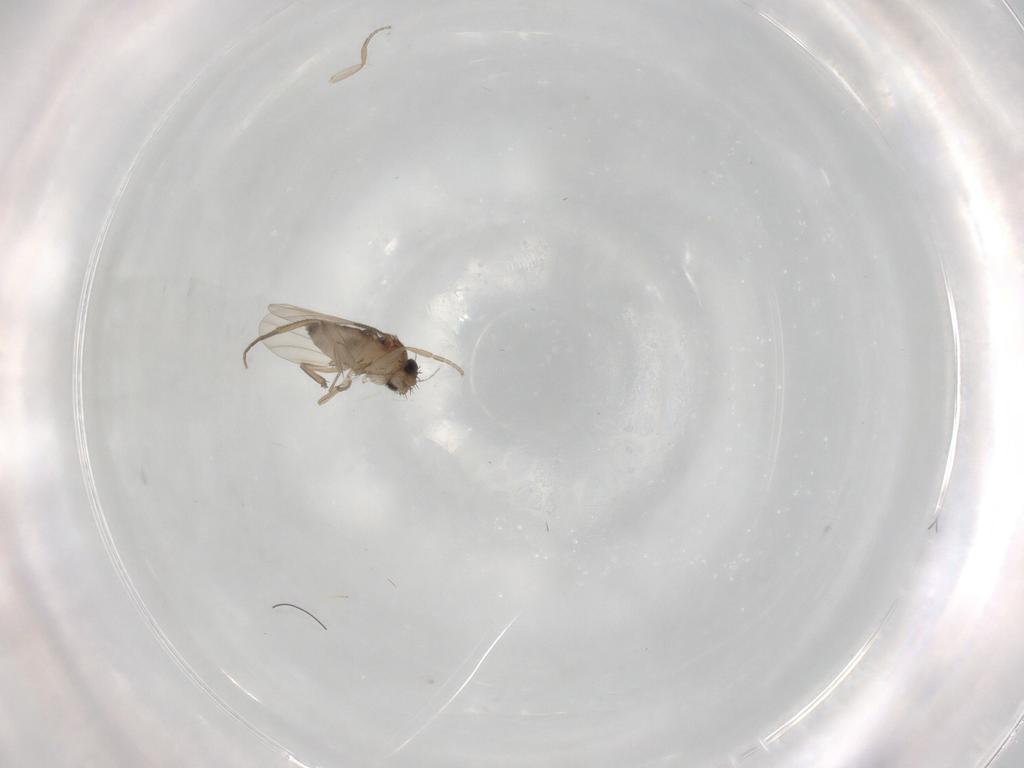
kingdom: Animalia
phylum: Arthropoda
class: Insecta
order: Diptera
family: Phoridae
